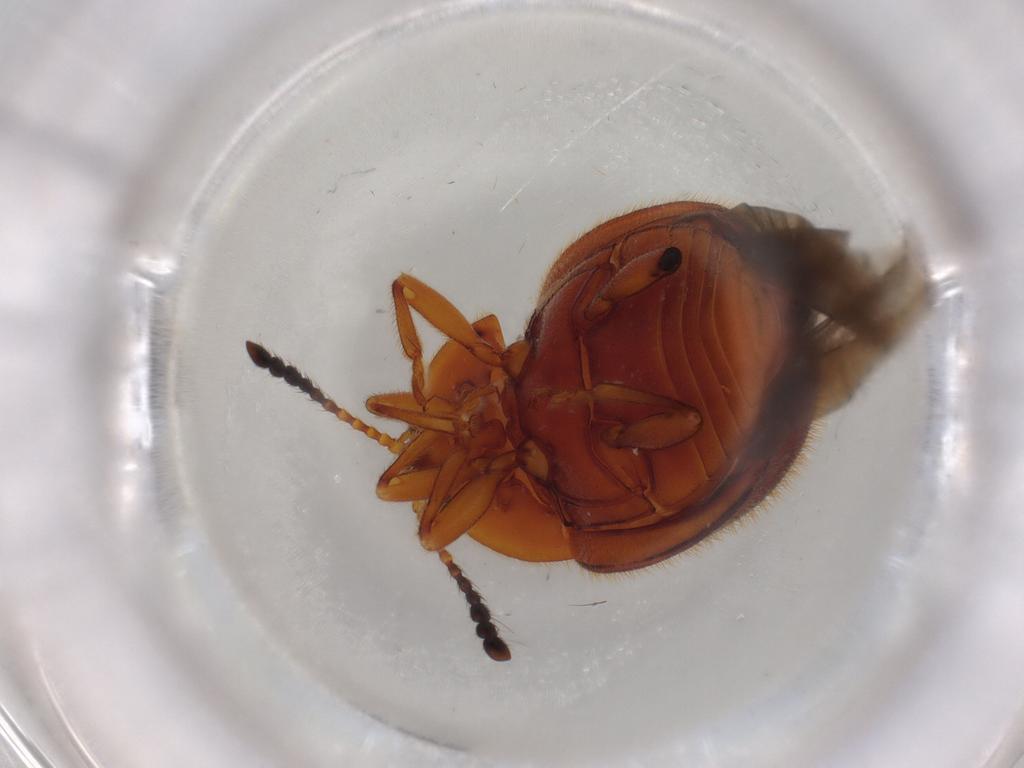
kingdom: Animalia
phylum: Arthropoda
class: Insecta
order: Coleoptera
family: Endomychidae
